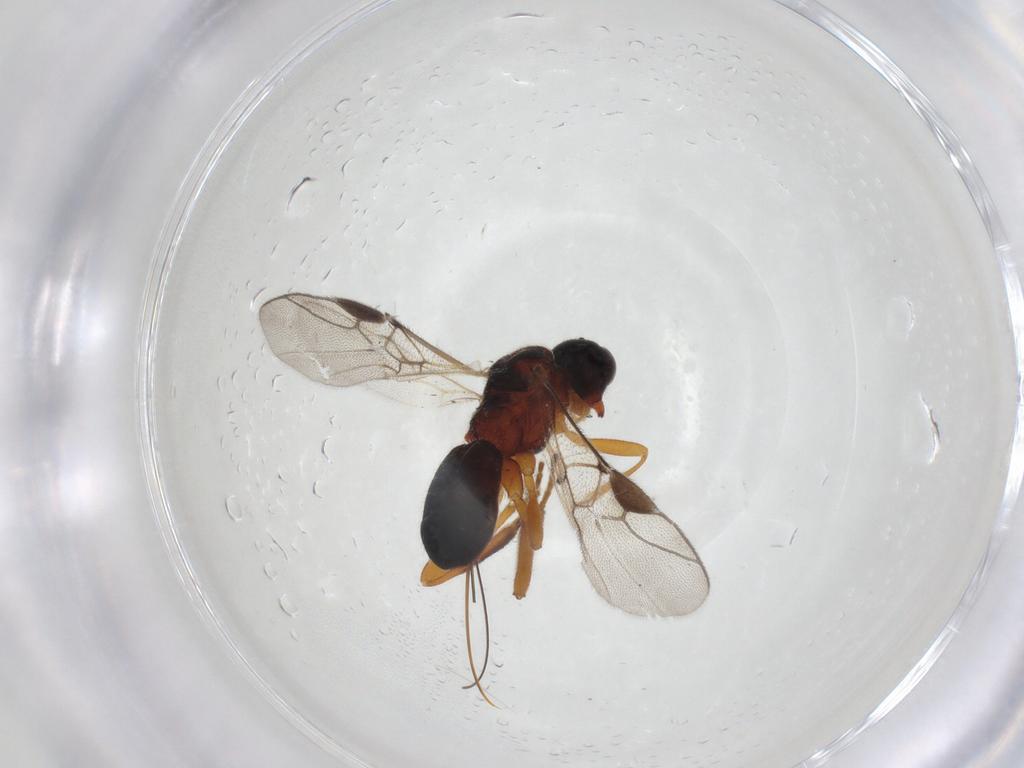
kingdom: Animalia
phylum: Arthropoda
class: Insecta
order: Hymenoptera
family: Braconidae
